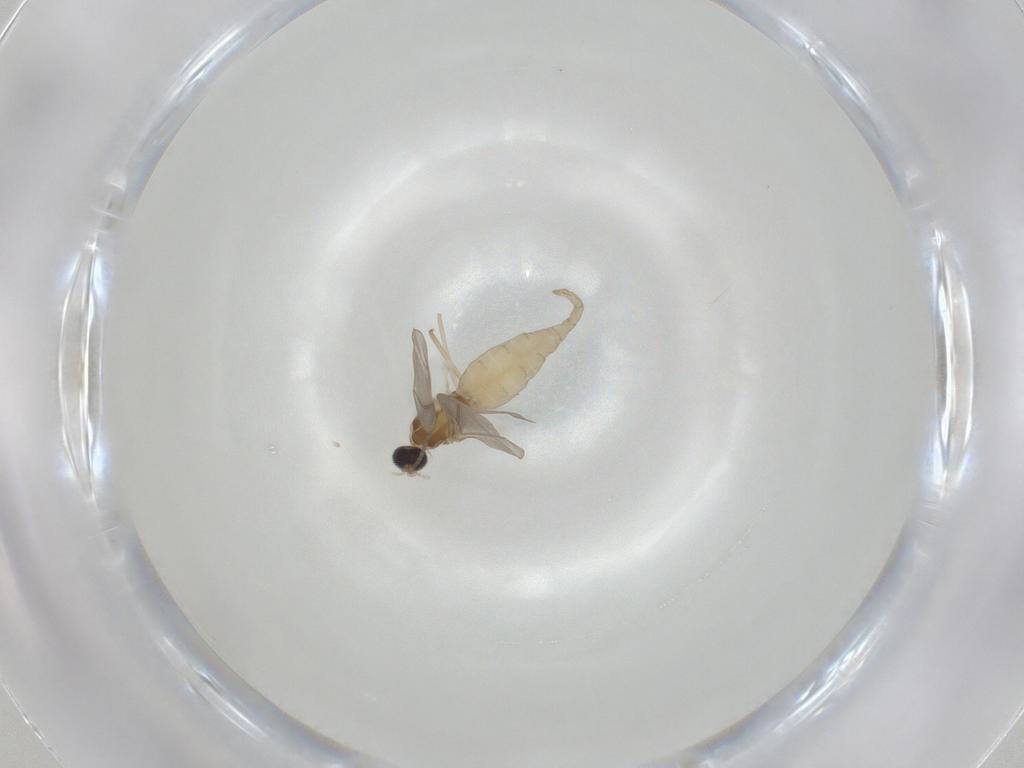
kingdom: Animalia
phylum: Arthropoda
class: Insecta
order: Diptera
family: Cecidomyiidae
